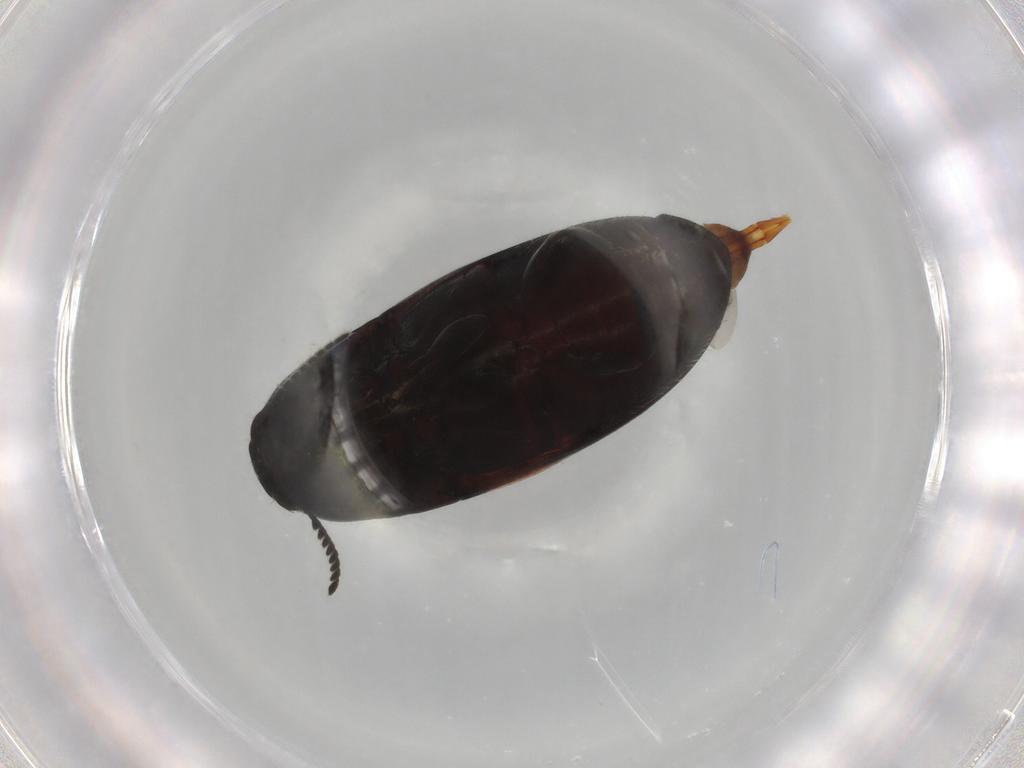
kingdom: Animalia
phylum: Arthropoda
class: Insecta
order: Coleoptera
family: Elateridae
